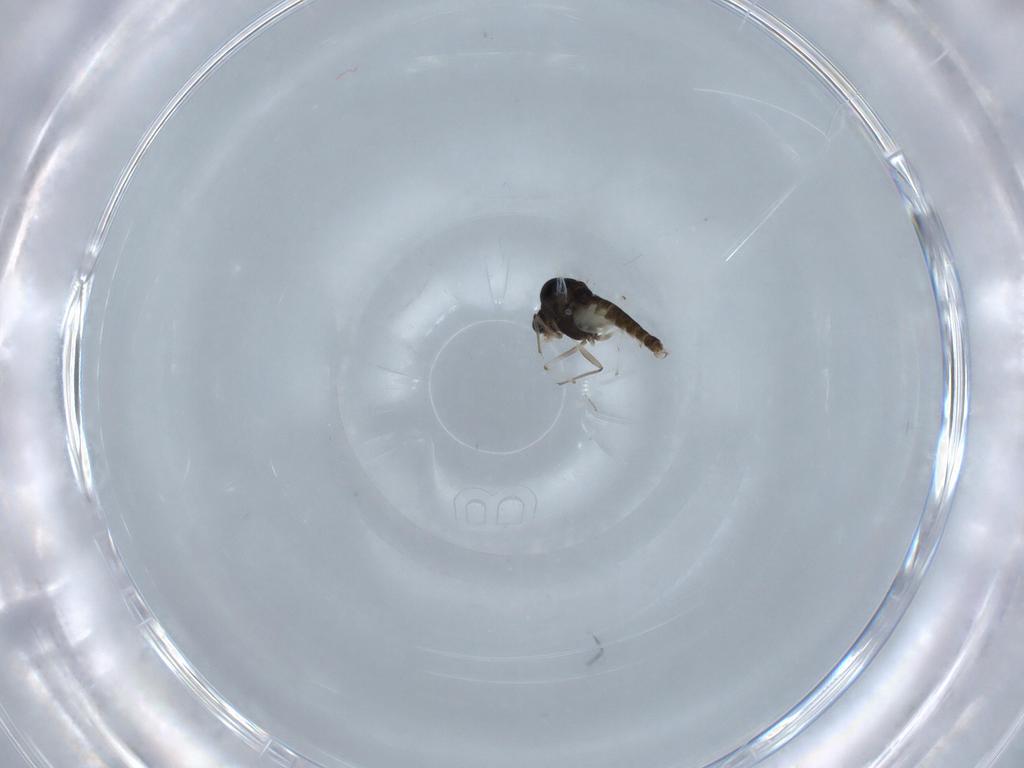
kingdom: Animalia
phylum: Arthropoda
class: Insecta
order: Diptera
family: Chironomidae
